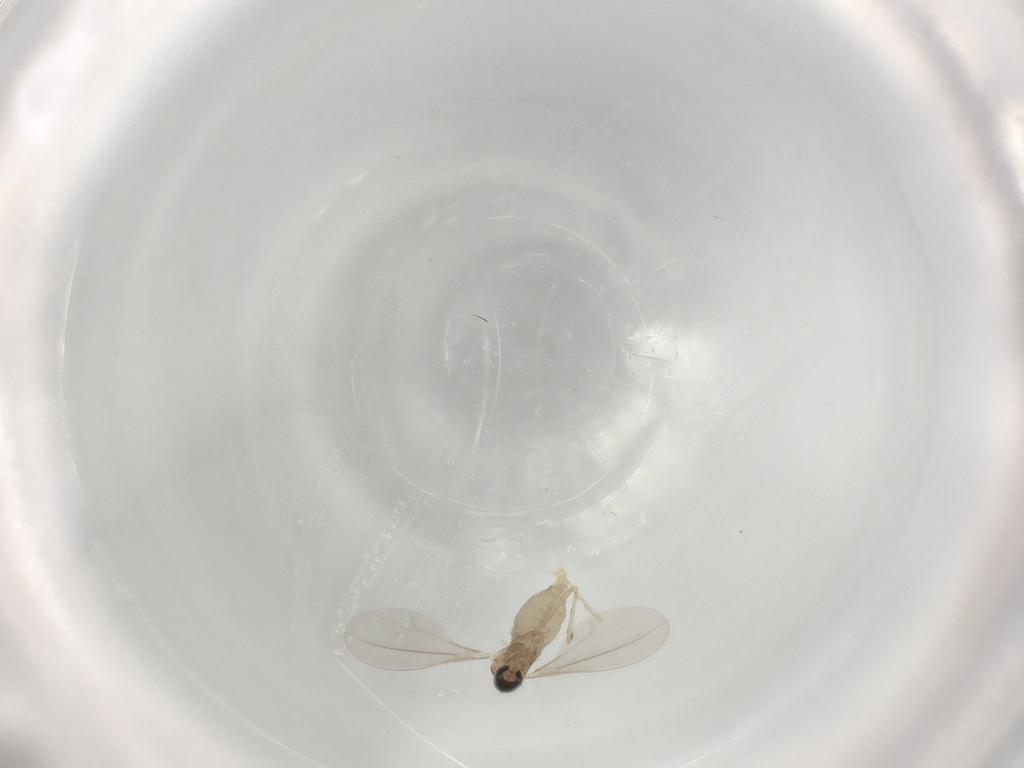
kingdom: Animalia
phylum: Arthropoda
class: Insecta
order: Diptera
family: Cecidomyiidae
